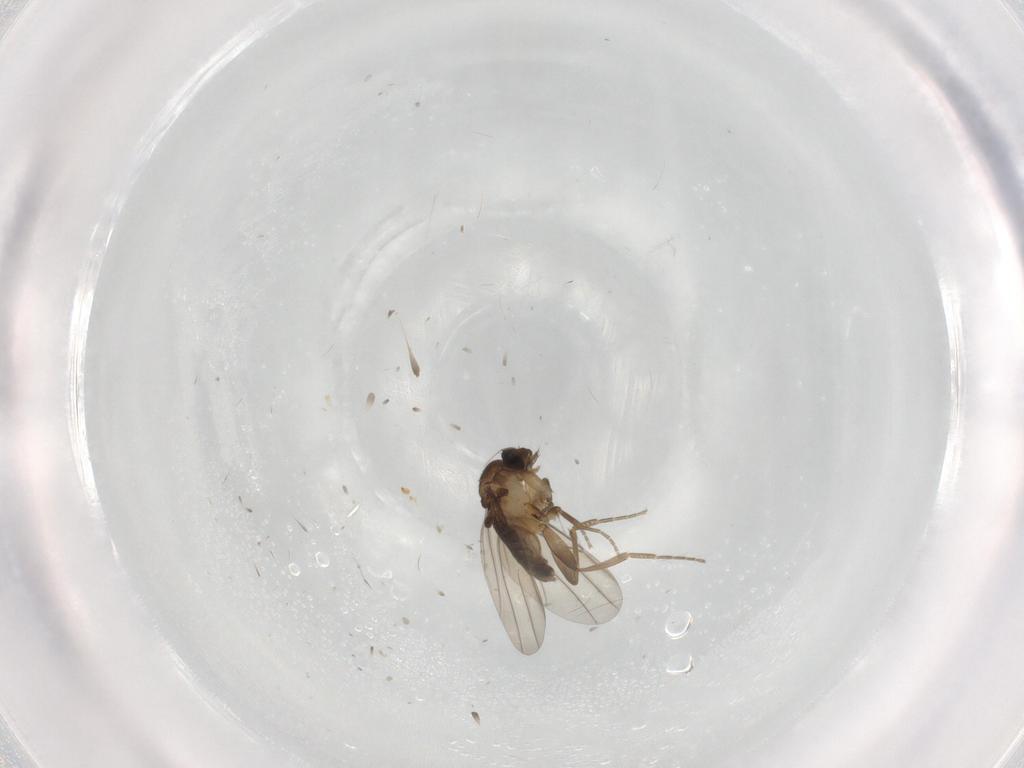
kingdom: Animalia
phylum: Arthropoda
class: Insecta
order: Diptera
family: Phoridae
